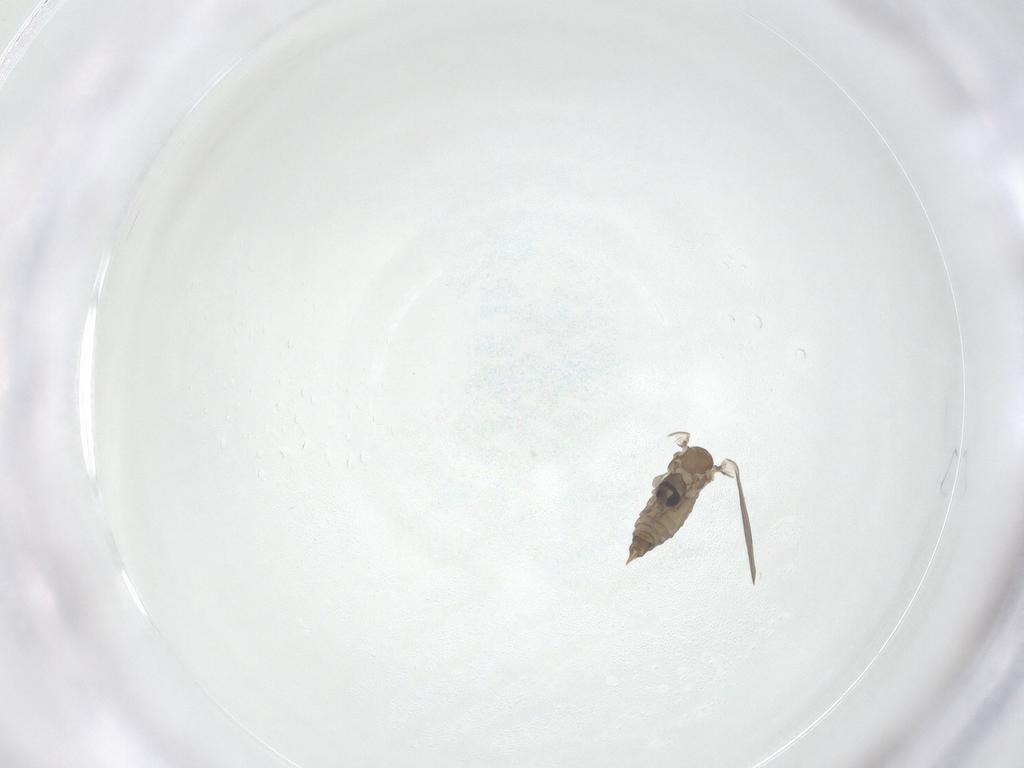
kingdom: Animalia
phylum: Arthropoda
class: Insecta
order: Diptera
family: Psychodidae
